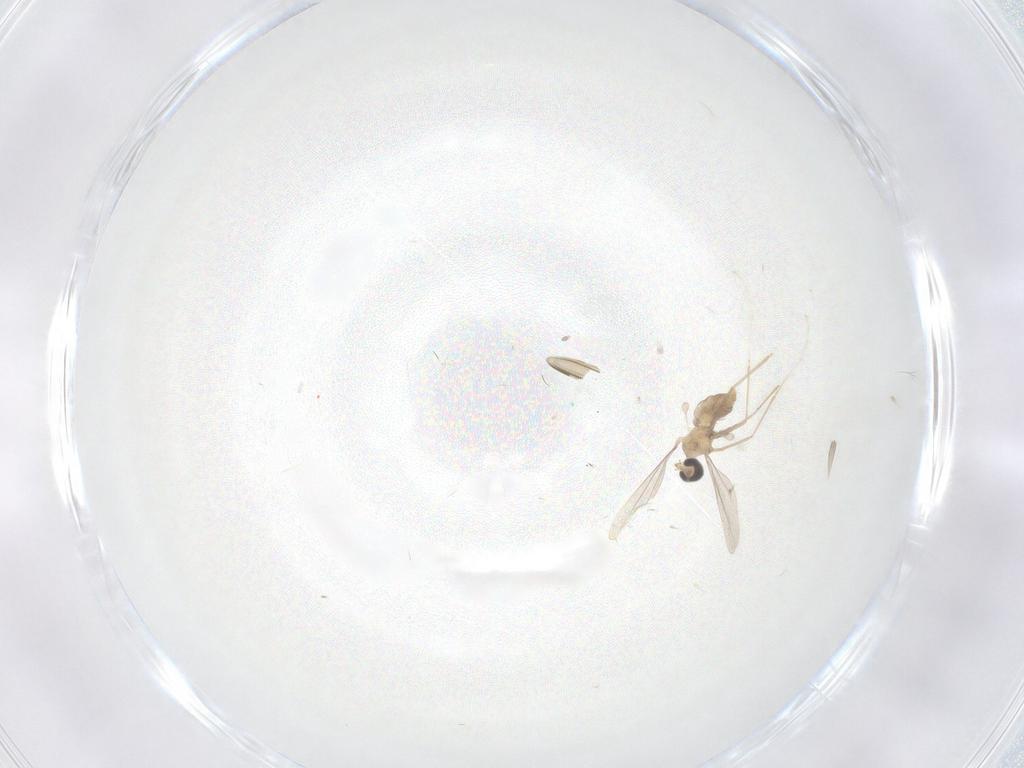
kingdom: Animalia
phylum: Arthropoda
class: Insecta
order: Diptera
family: Cecidomyiidae
